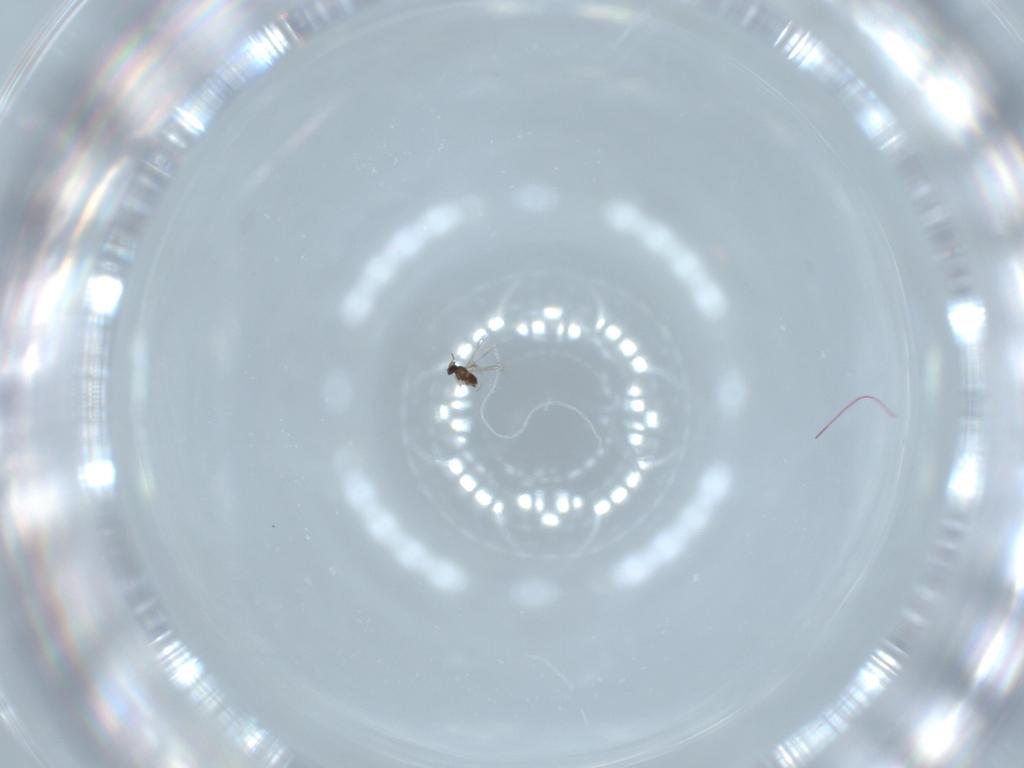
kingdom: Animalia
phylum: Arthropoda
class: Insecta
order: Hymenoptera
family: Mymaridae
